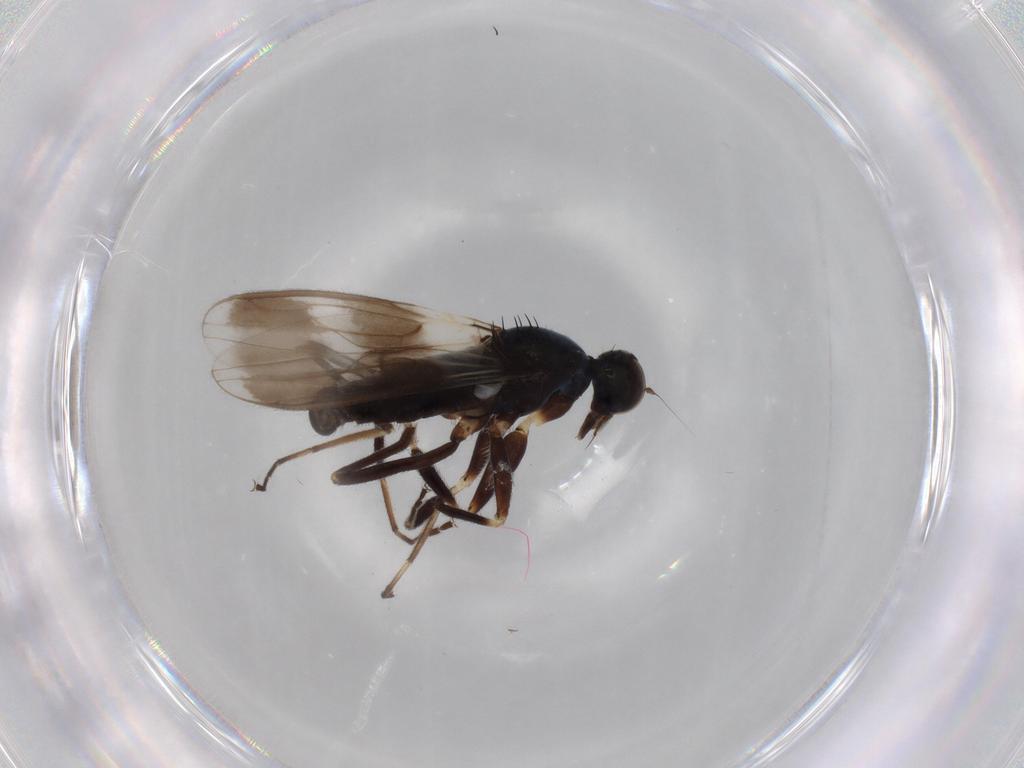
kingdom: Animalia
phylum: Arthropoda
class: Insecta
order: Diptera
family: Hybotidae
